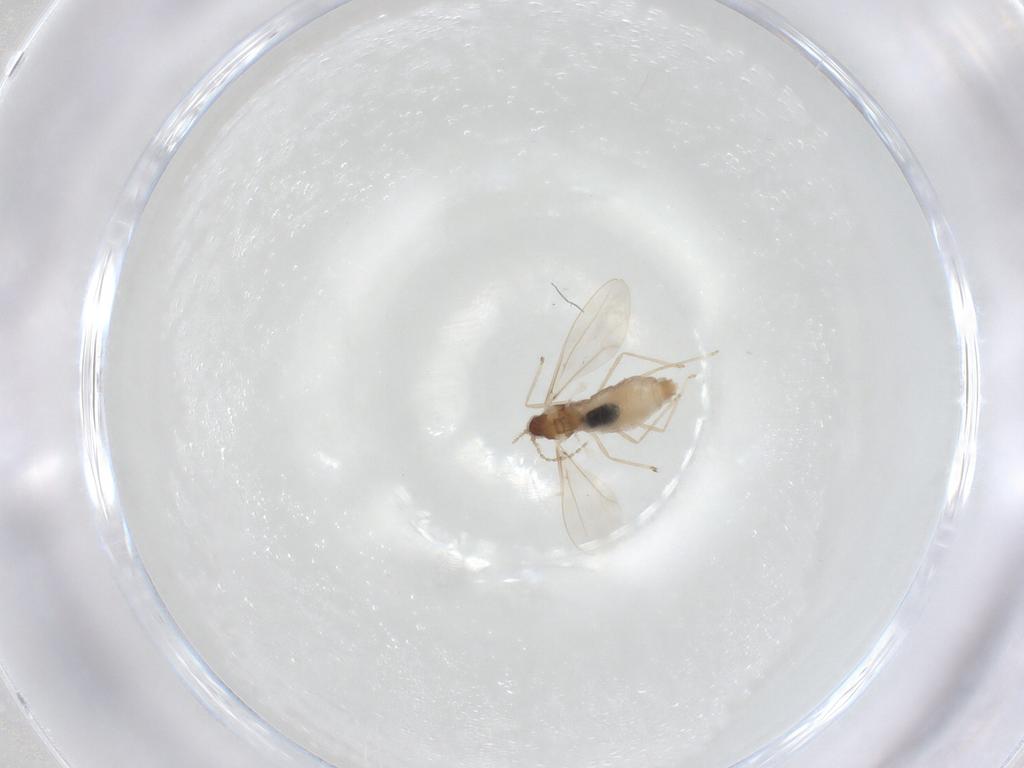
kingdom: Animalia
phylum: Arthropoda
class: Insecta
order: Diptera
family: Cecidomyiidae
